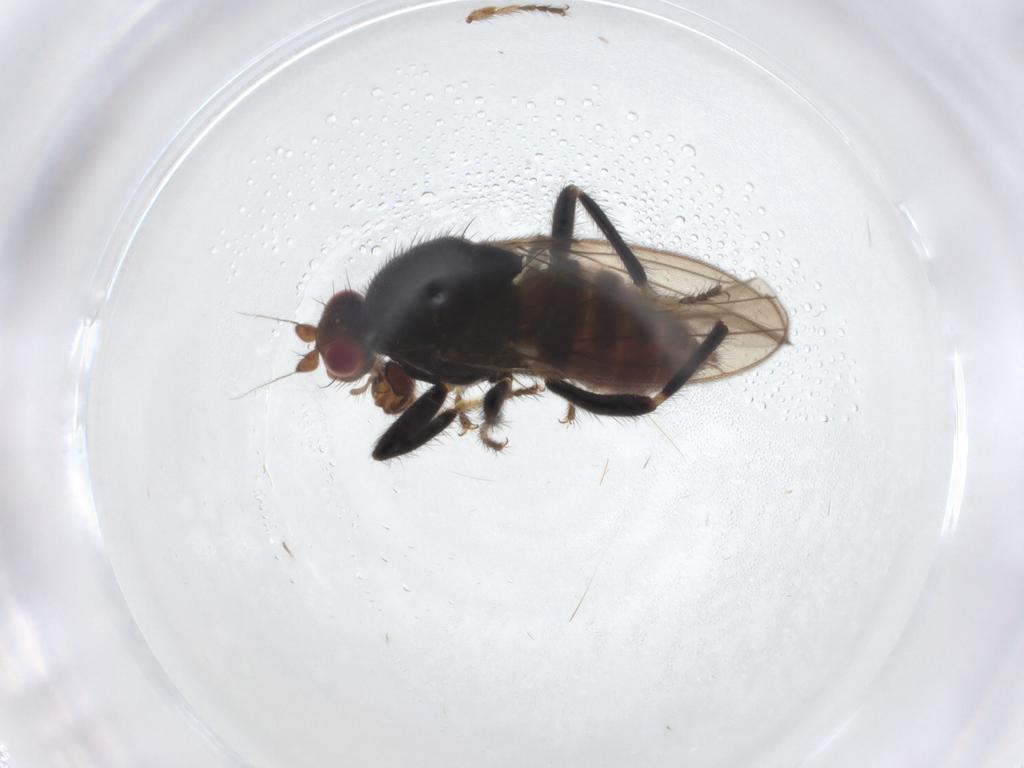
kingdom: Animalia
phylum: Arthropoda
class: Insecta
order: Diptera
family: Sphaeroceridae
